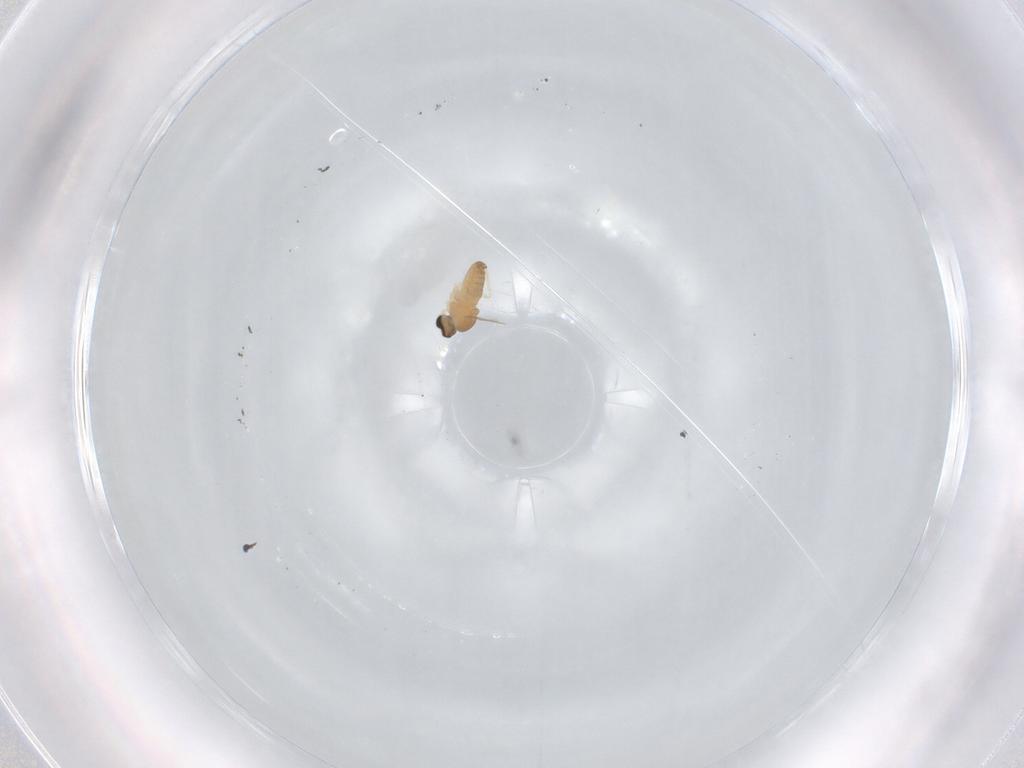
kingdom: Animalia
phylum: Arthropoda
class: Insecta
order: Diptera
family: Cecidomyiidae
